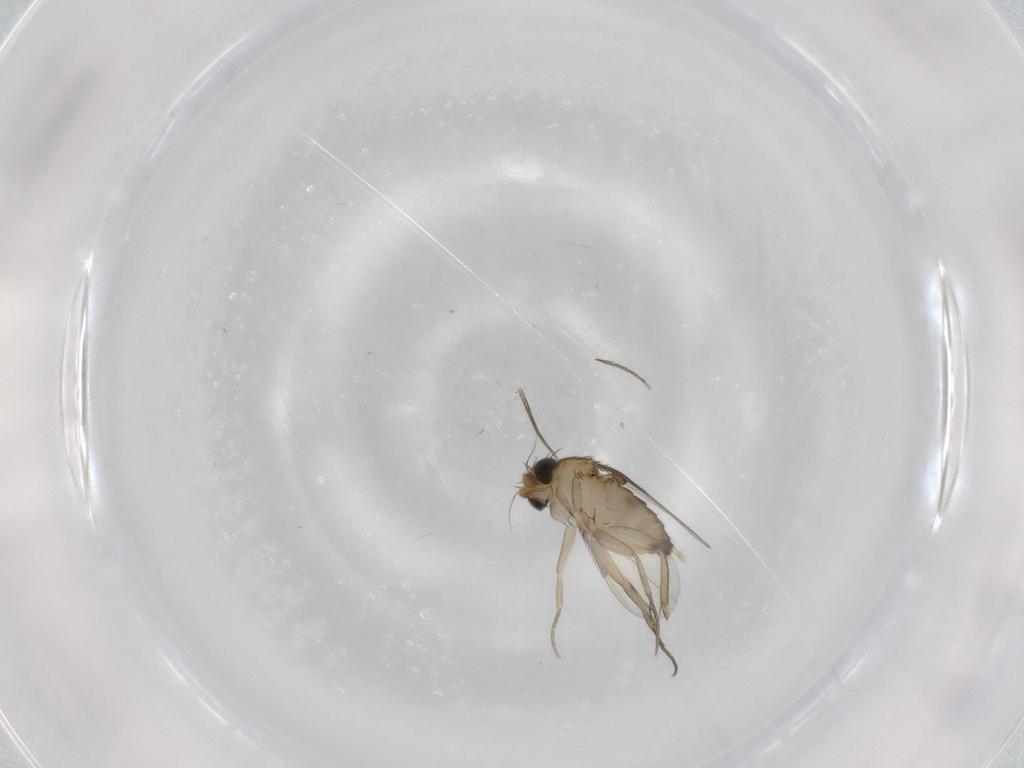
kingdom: Animalia
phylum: Arthropoda
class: Insecta
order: Diptera
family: Phoridae
